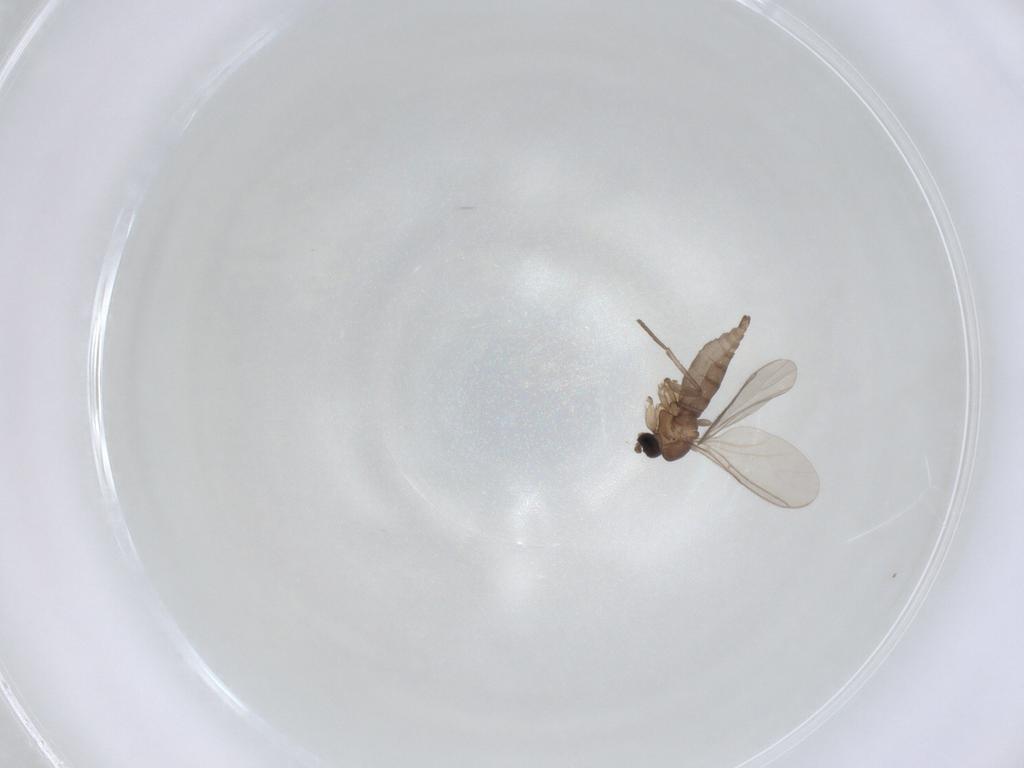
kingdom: Animalia
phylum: Arthropoda
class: Insecta
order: Diptera
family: Sciaridae
